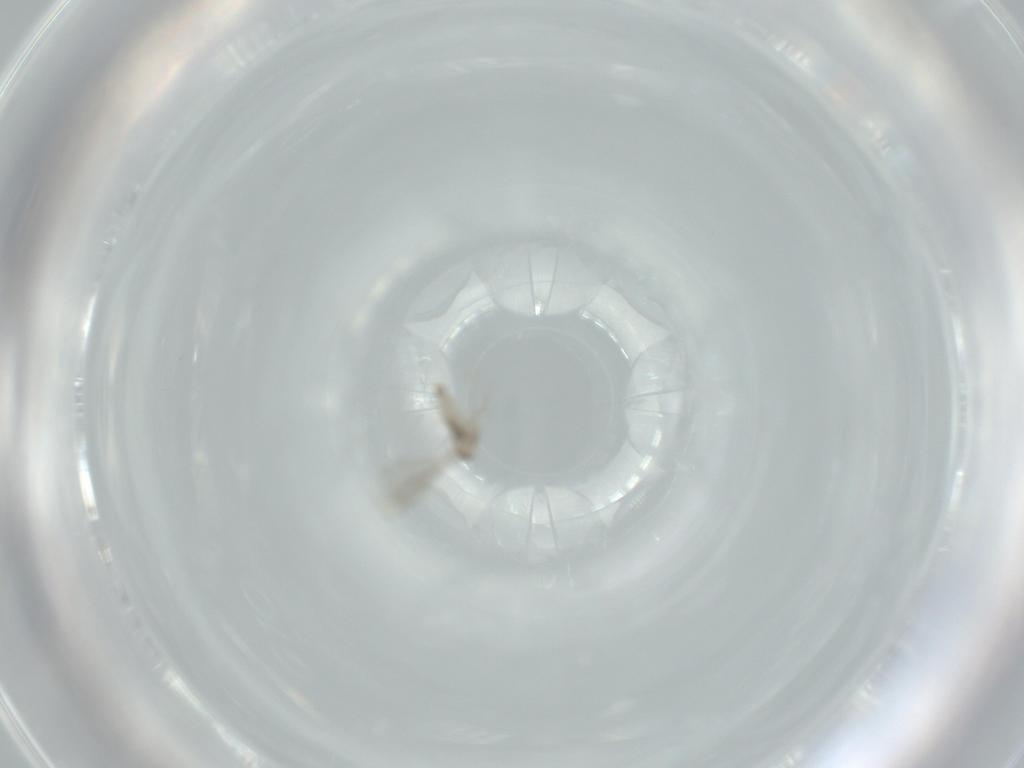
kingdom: Animalia
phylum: Arthropoda
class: Insecta
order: Diptera
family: Cecidomyiidae
